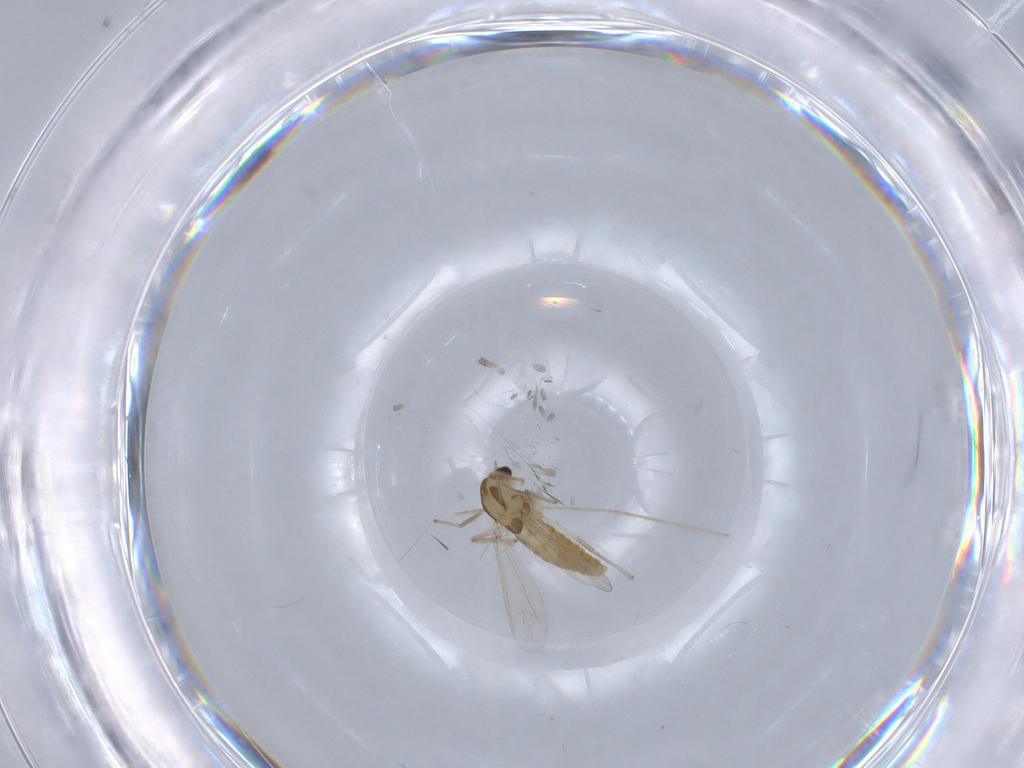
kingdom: Animalia
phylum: Arthropoda
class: Insecta
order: Diptera
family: Chironomidae
